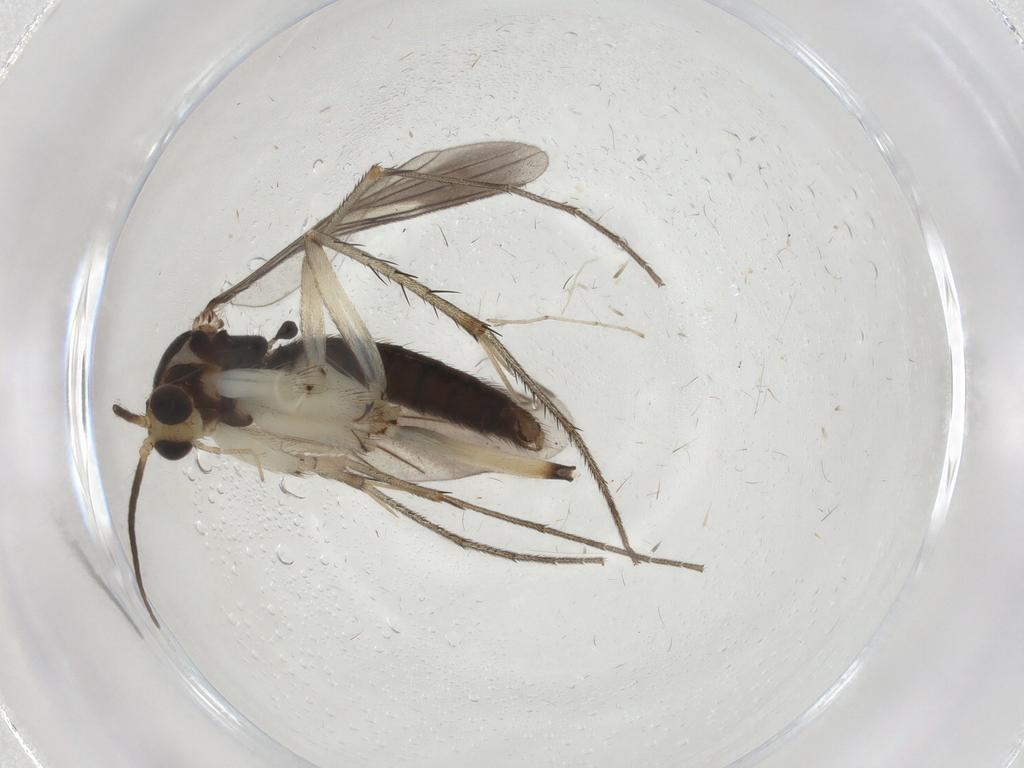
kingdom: Animalia
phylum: Arthropoda
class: Insecta
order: Diptera
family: Mycetophilidae
